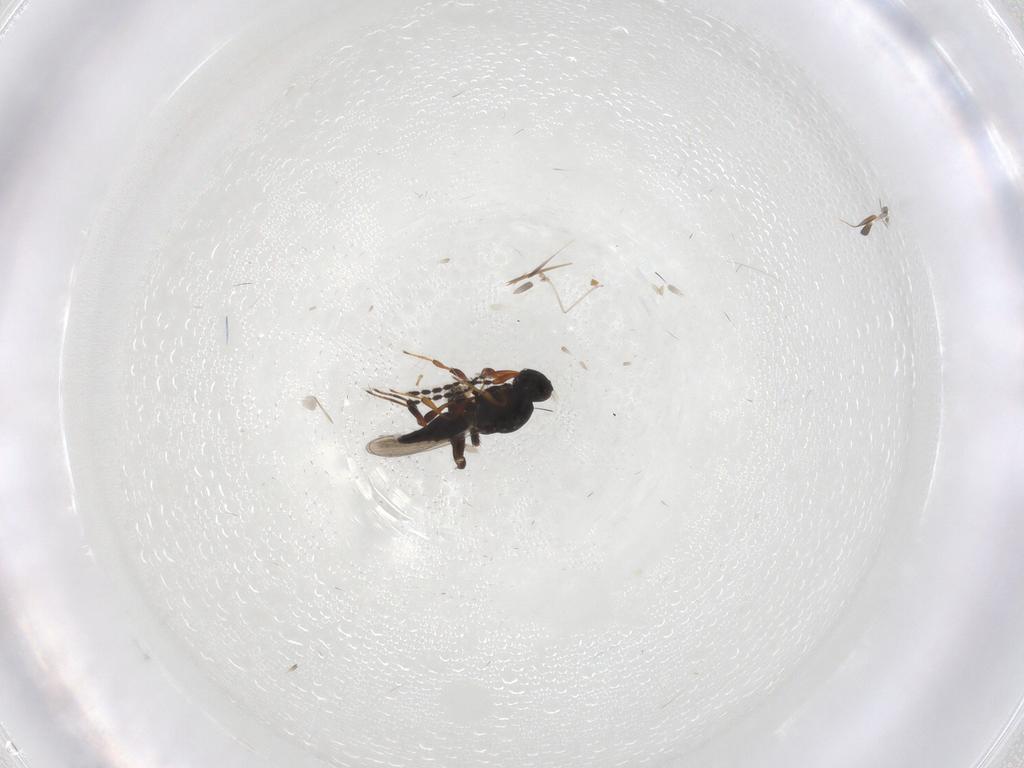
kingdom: Animalia
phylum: Arthropoda
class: Insecta
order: Hymenoptera
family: Platygastridae
